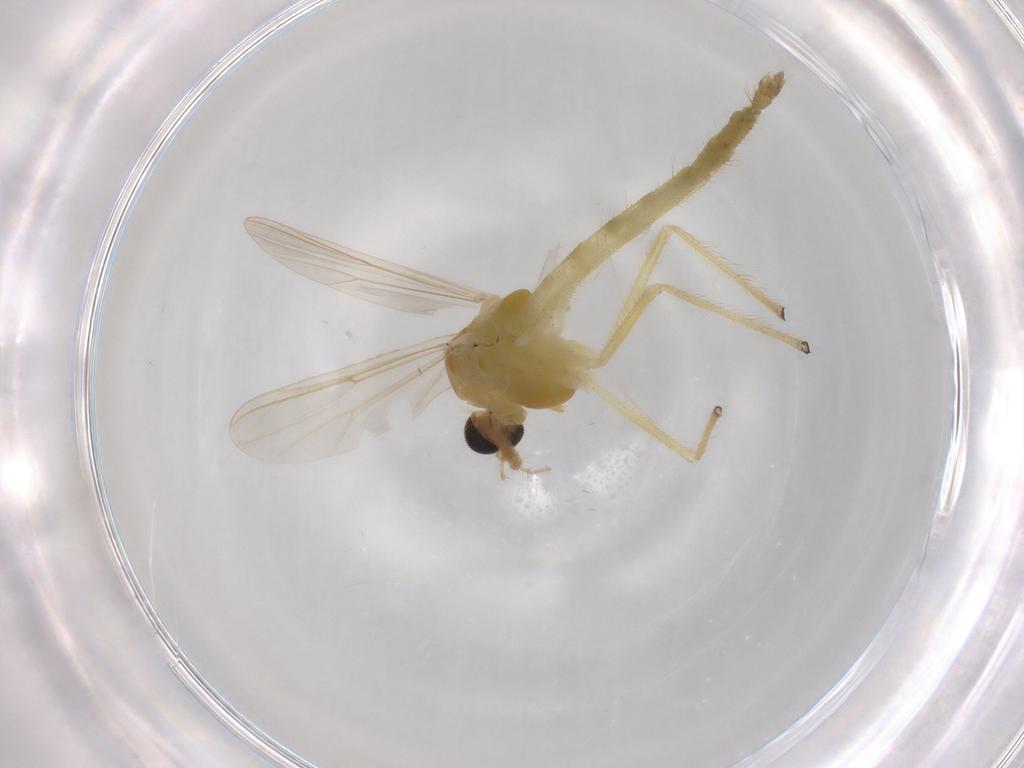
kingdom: Animalia
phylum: Arthropoda
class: Insecta
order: Diptera
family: Chironomidae
